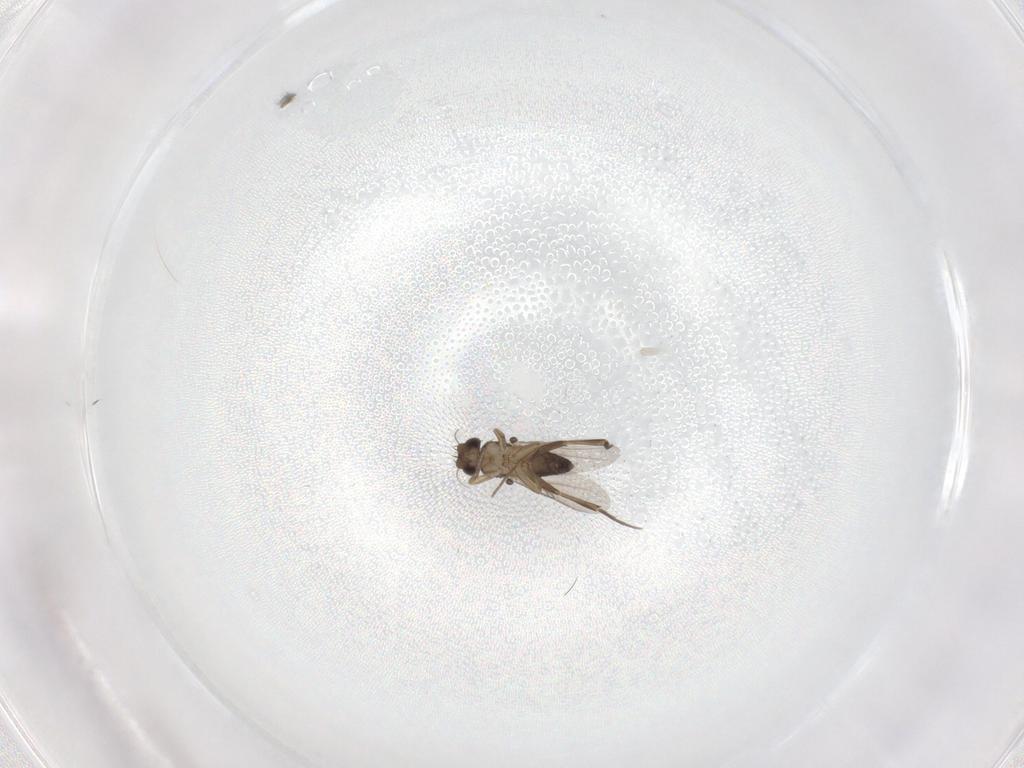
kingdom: Animalia
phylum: Arthropoda
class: Insecta
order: Diptera
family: Phoridae
